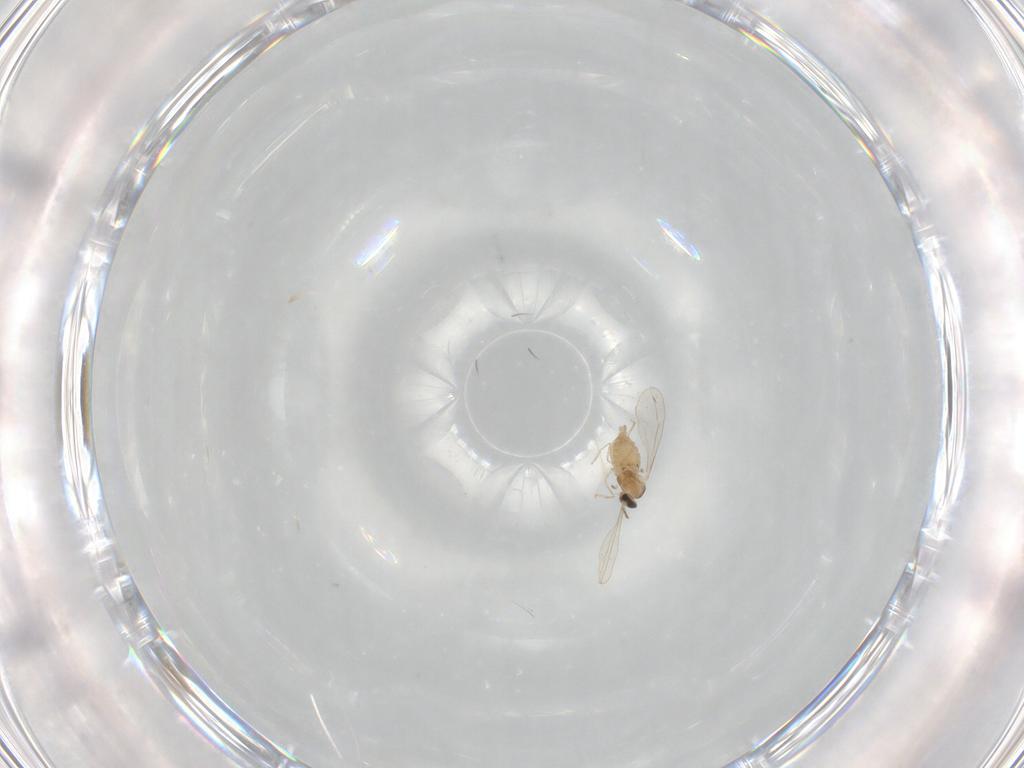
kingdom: Animalia
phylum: Arthropoda
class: Insecta
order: Diptera
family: Cecidomyiidae
